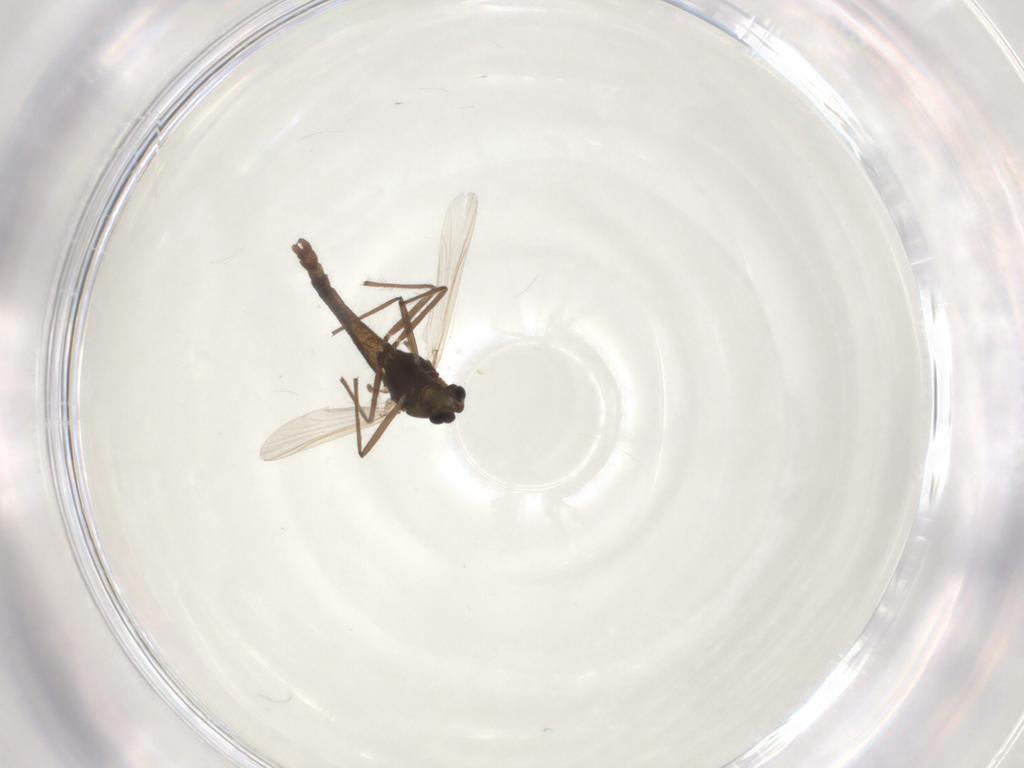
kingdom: Animalia
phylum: Arthropoda
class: Insecta
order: Diptera
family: Chironomidae
